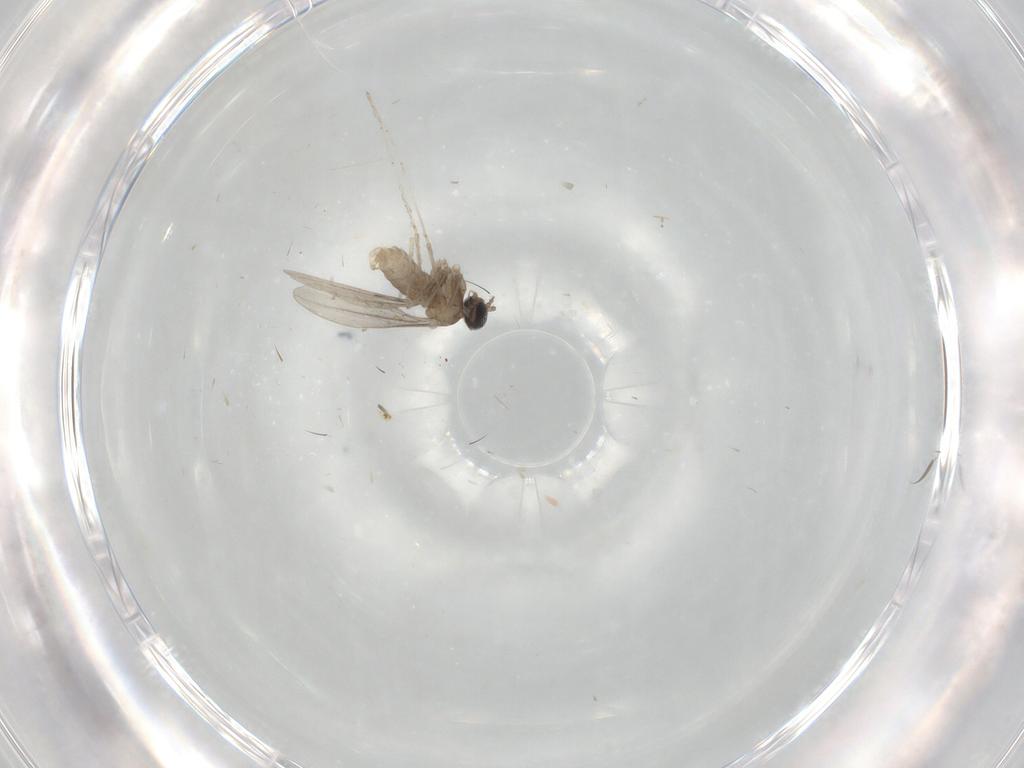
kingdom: Animalia
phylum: Arthropoda
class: Insecta
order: Diptera
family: Cecidomyiidae
